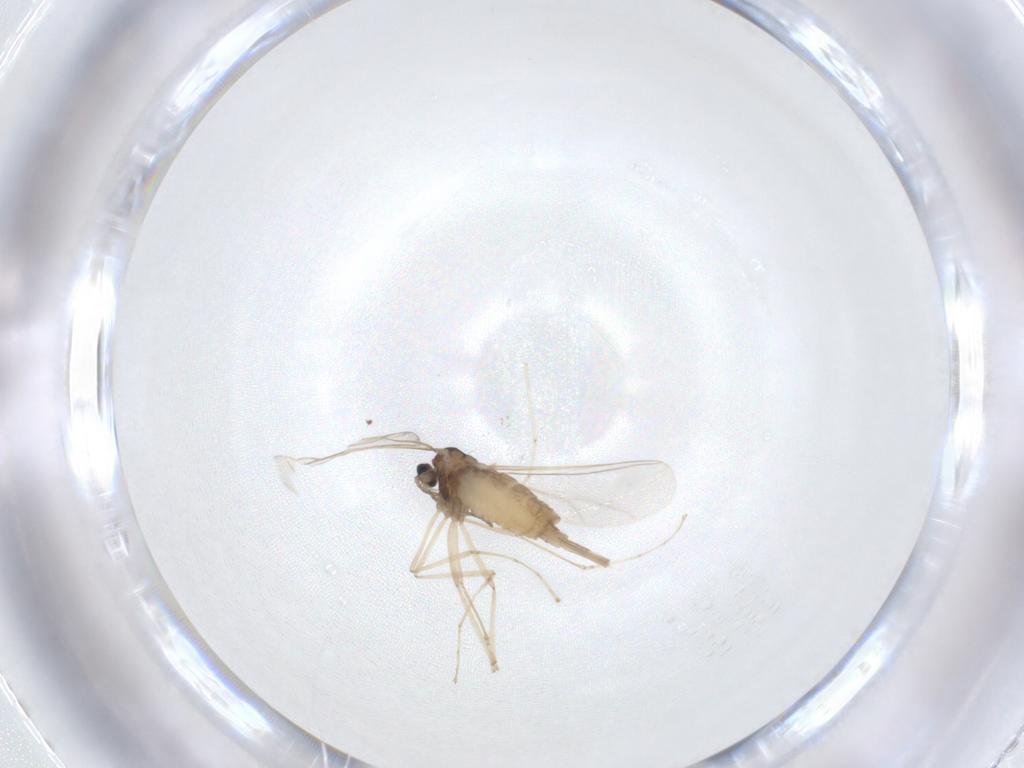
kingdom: Animalia
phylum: Arthropoda
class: Insecta
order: Diptera
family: Cecidomyiidae
